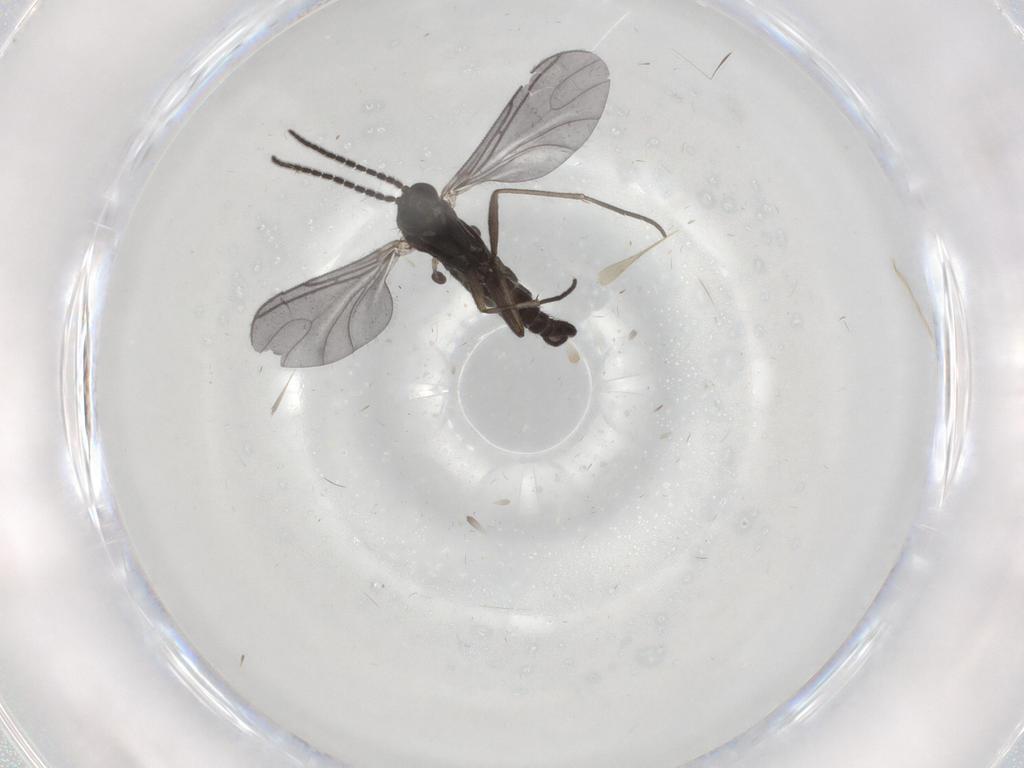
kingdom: Animalia
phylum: Arthropoda
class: Insecta
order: Diptera
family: Sciaridae
